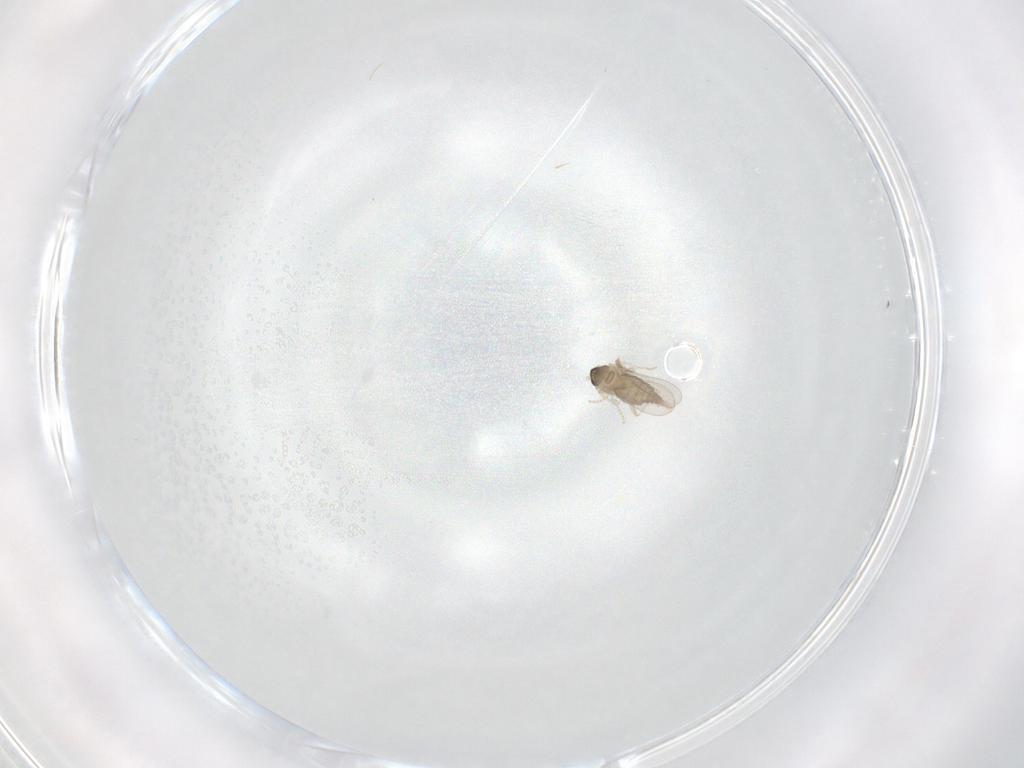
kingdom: Animalia
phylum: Arthropoda
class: Insecta
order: Diptera
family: Cecidomyiidae
